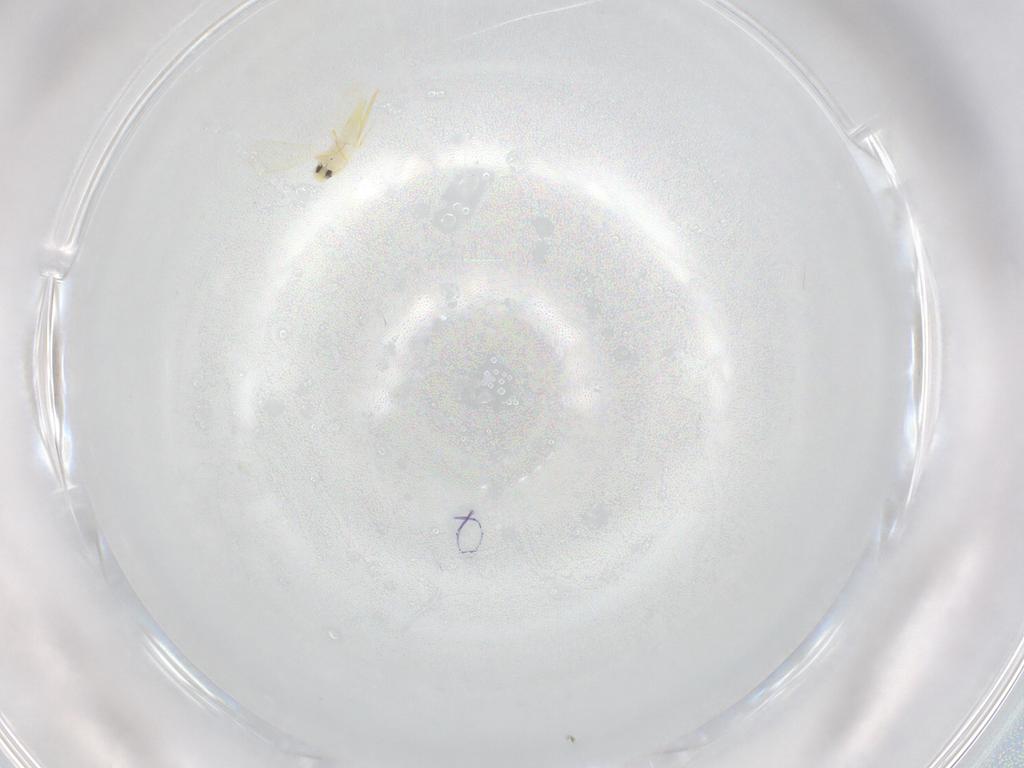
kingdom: Animalia
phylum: Arthropoda
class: Insecta
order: Hemiptera
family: Aleyrodidae
